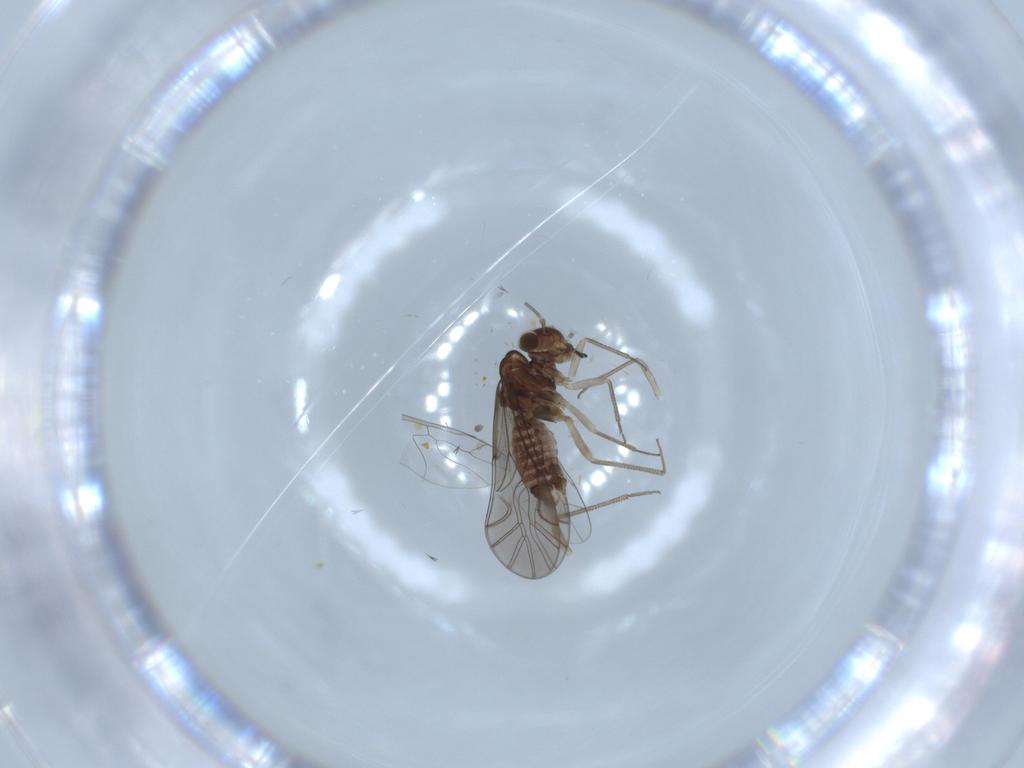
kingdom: Animalia
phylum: Arthropoda
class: Insecta
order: Psocodea
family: Lachesillidae
